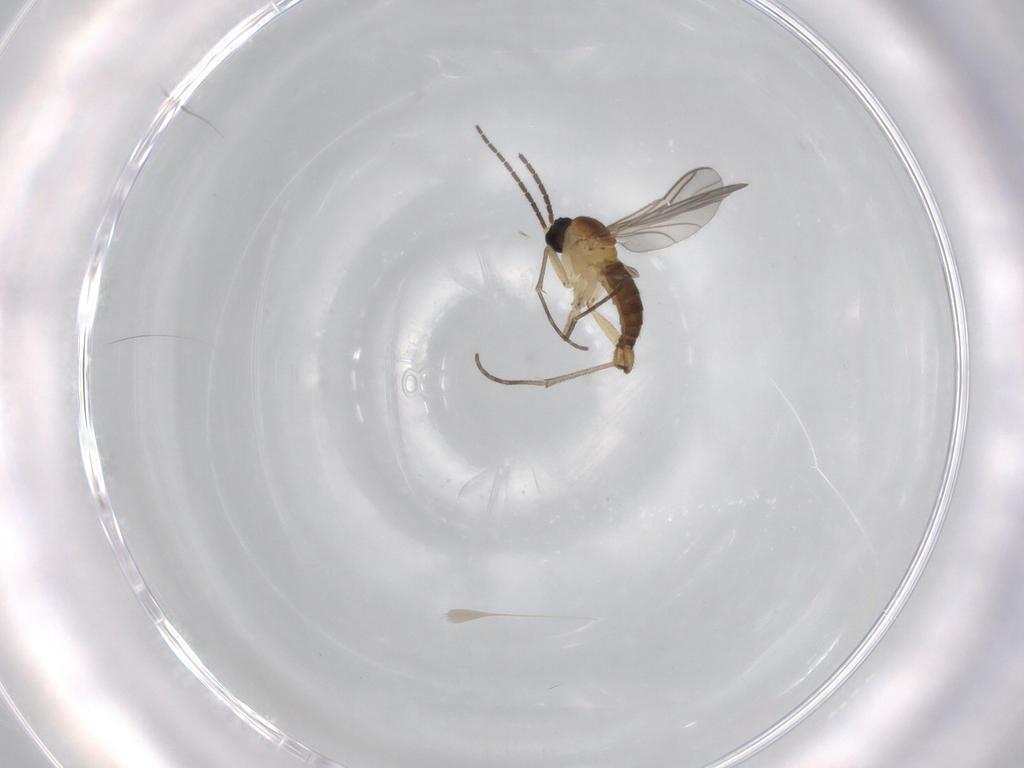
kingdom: Animalia
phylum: Arthropoda
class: Insecta
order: Diptera
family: Sciaridae
